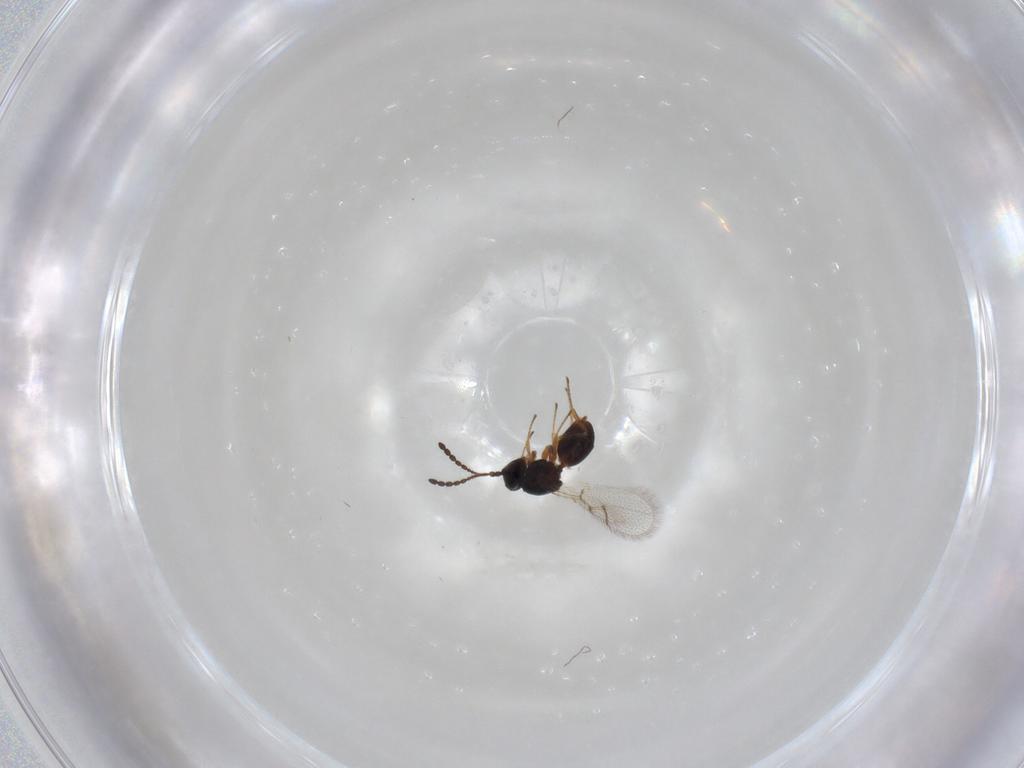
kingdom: Animalia
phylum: Arthropoda
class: Insecta
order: Hymenoptera
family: Figitidae
